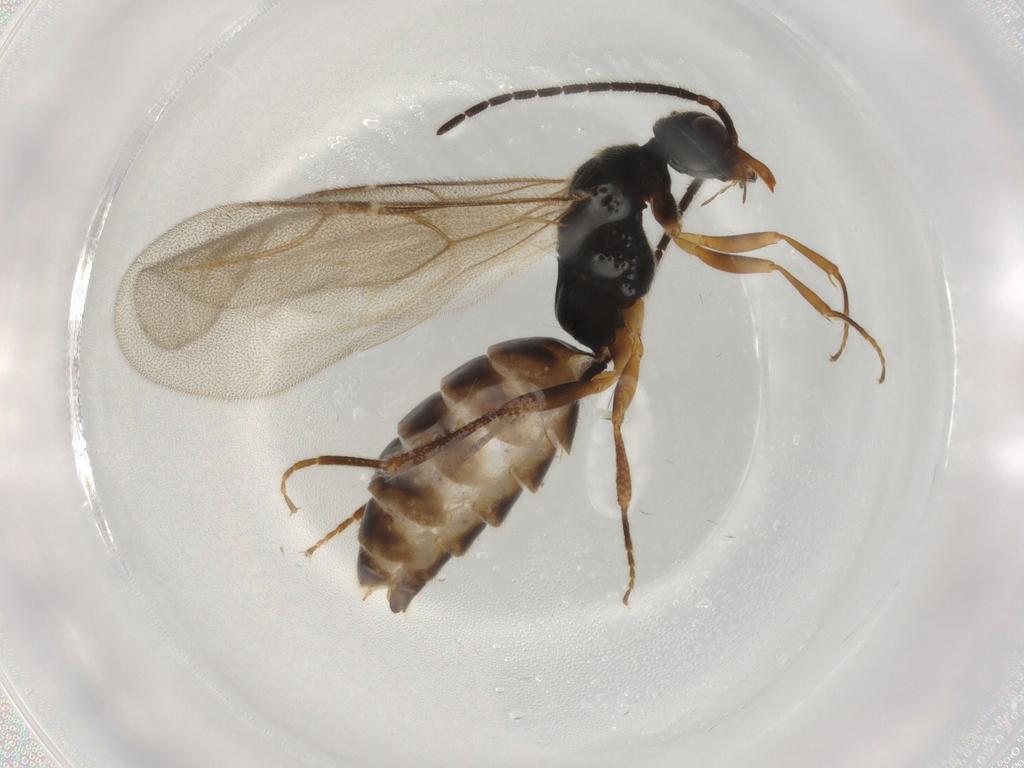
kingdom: Animalia
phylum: Arthropoda
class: Insecta
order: Hymenoptera
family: Bethylidae
